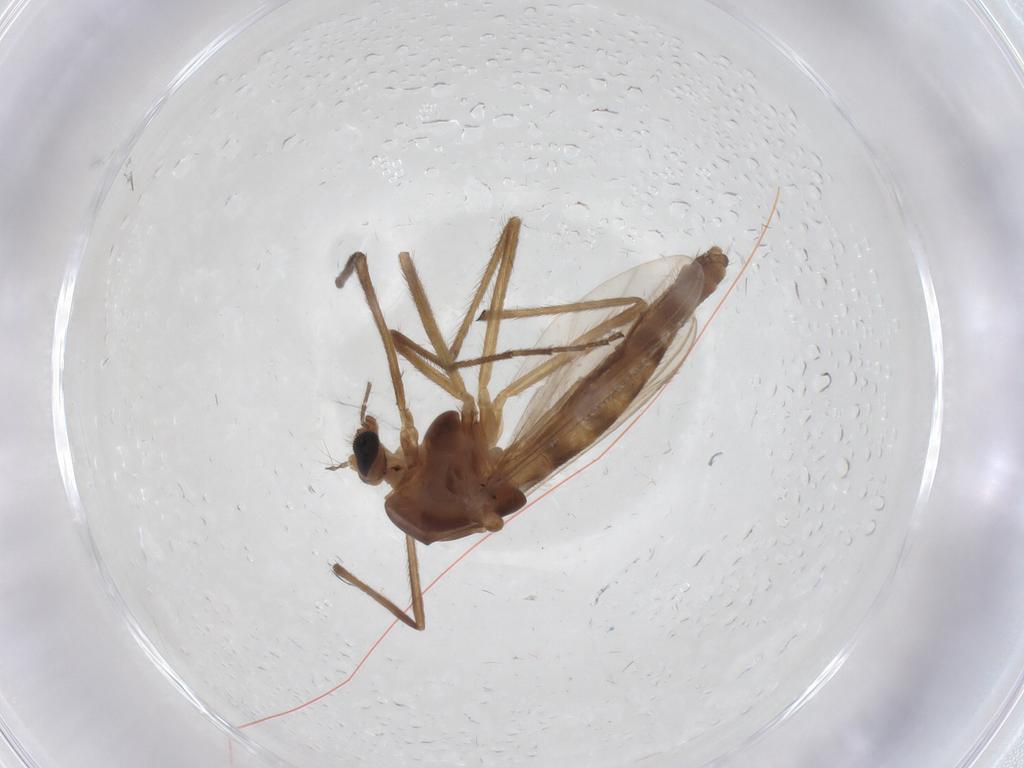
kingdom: Animalia
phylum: Arthropoda
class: Insecta
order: Diptera
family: Chironomidae
